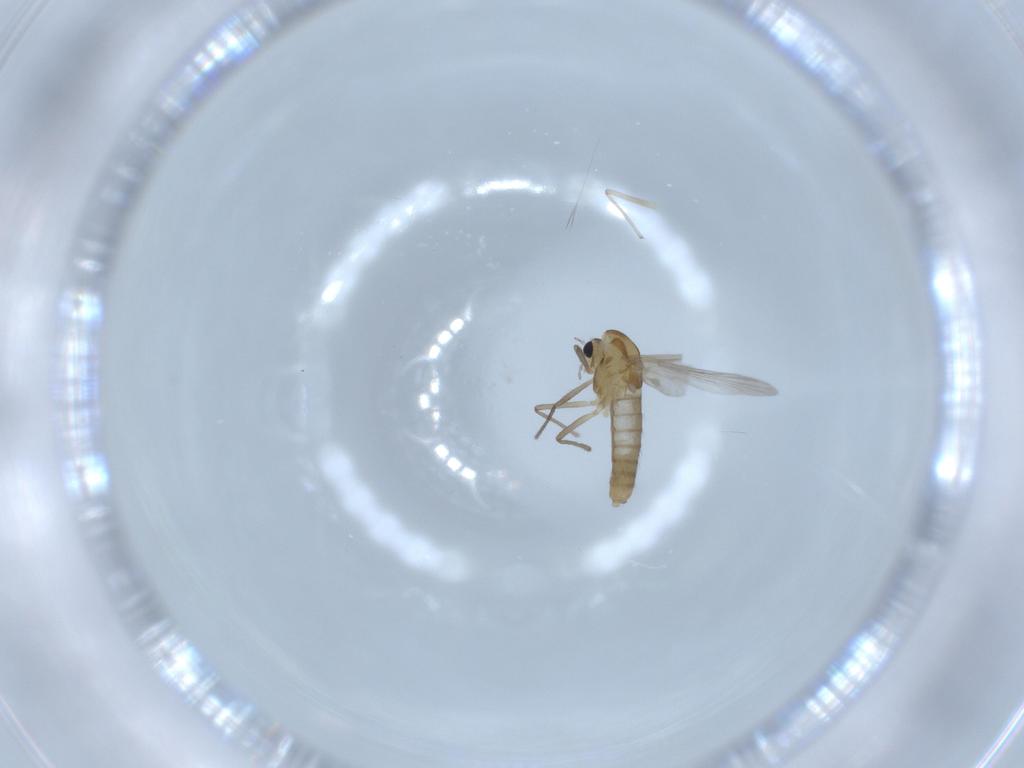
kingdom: Animalia
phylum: Arthropoda
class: Insecta
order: Diptera
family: Chironomidae
